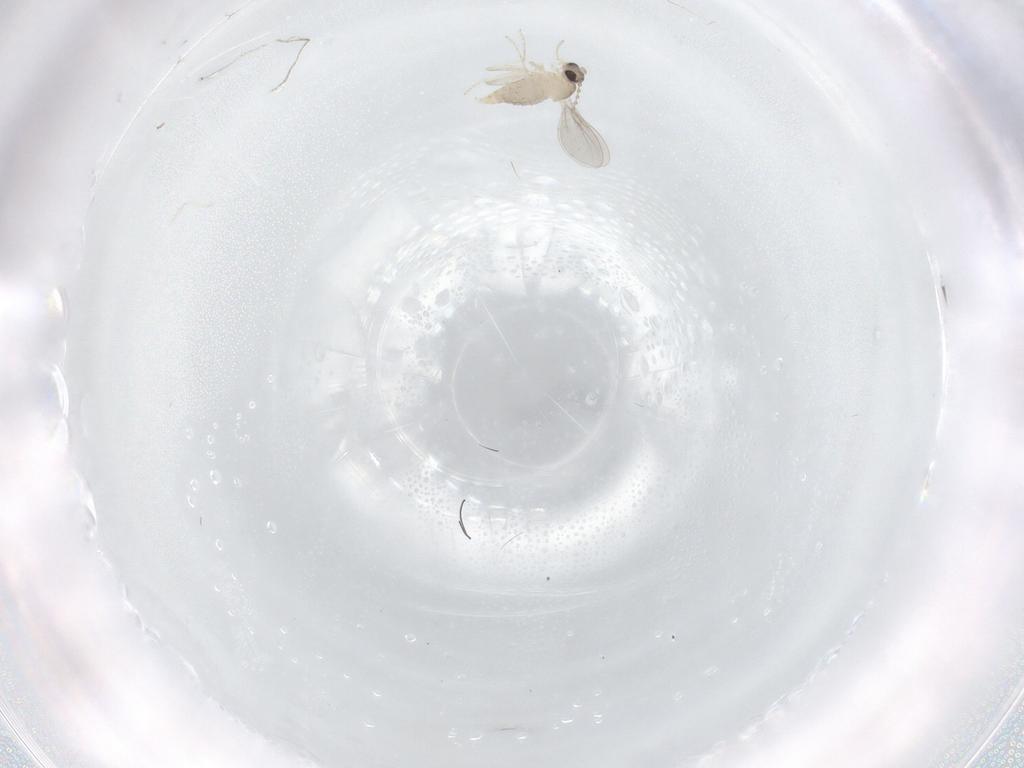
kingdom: Animalia
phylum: Arthropoda
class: Insecta
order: Diptera
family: Cecidomyiidae
